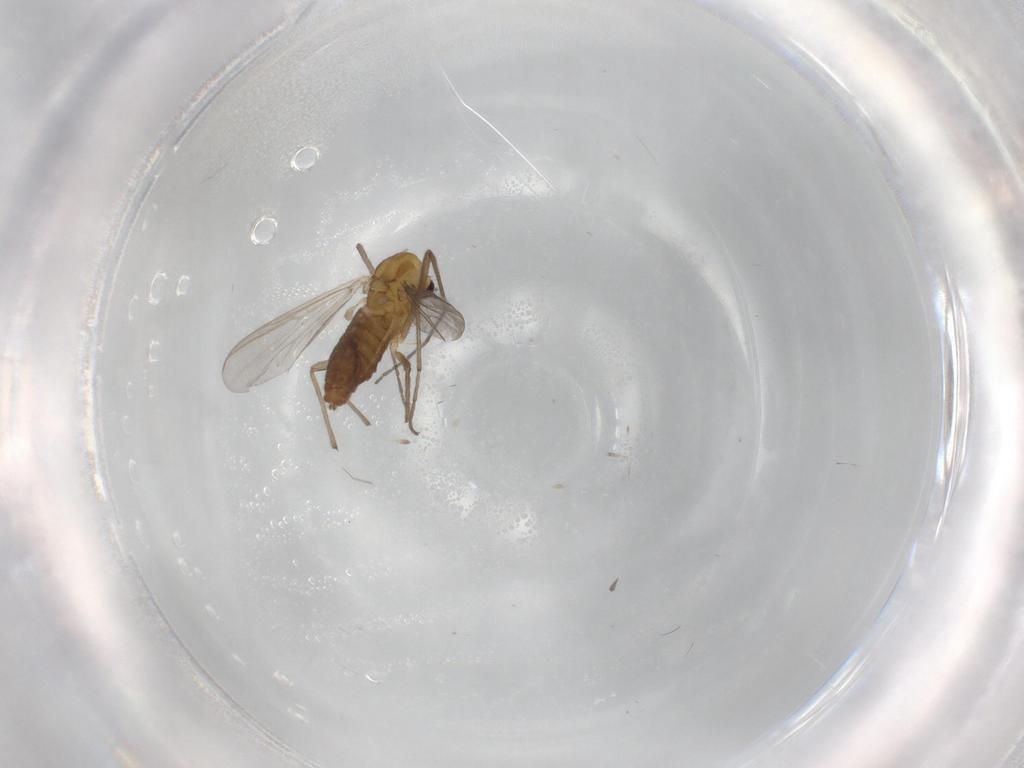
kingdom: Animalia
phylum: Arthropoda
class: Insecta
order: Diptera
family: Chironomidae
